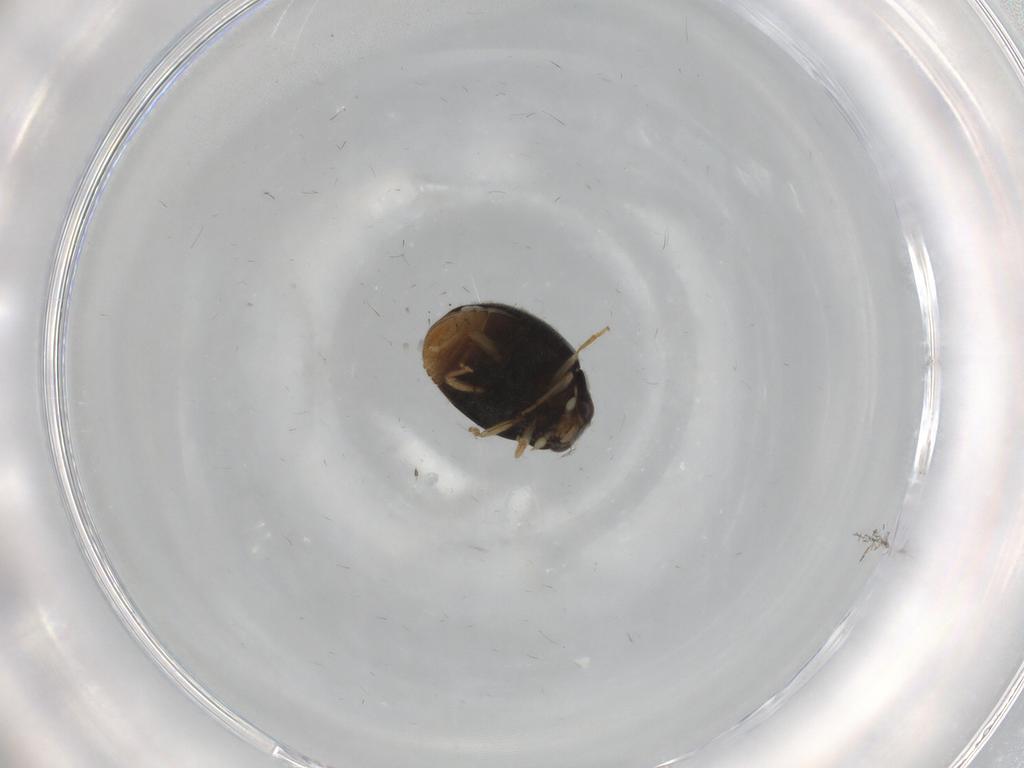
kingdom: Animalia
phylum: Arthropoda
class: Insecta
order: Coleoptera
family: Coccinellidae
